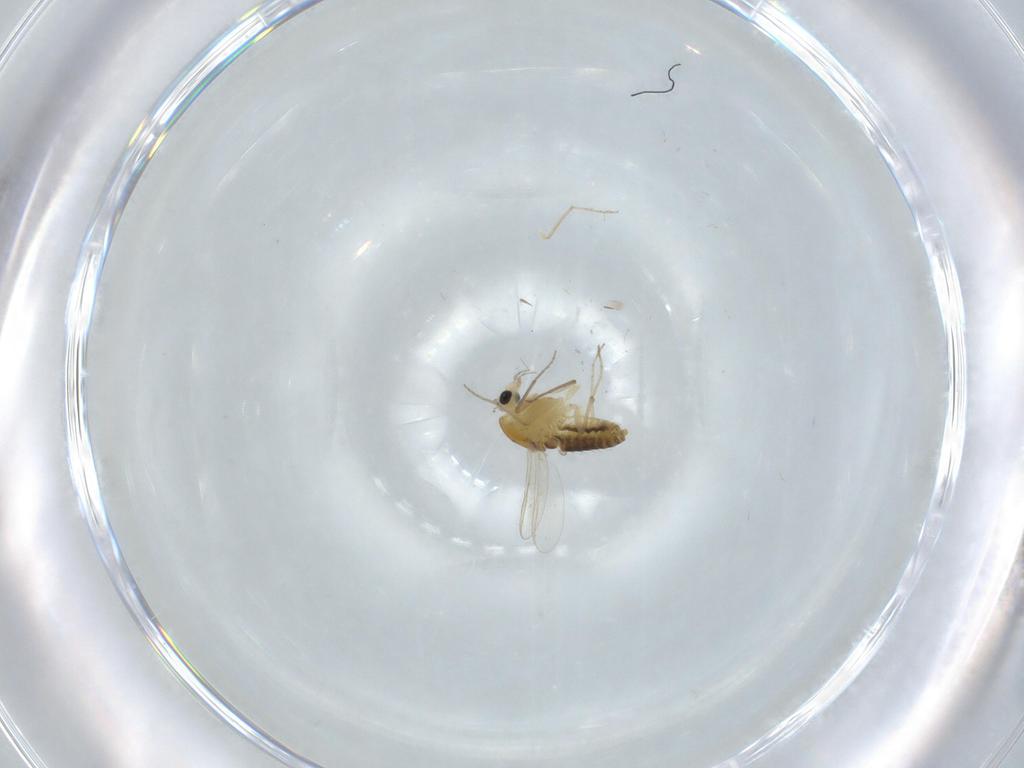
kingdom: Animalia
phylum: Arthropoda
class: Insecta
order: Diptera
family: Chironomidae
